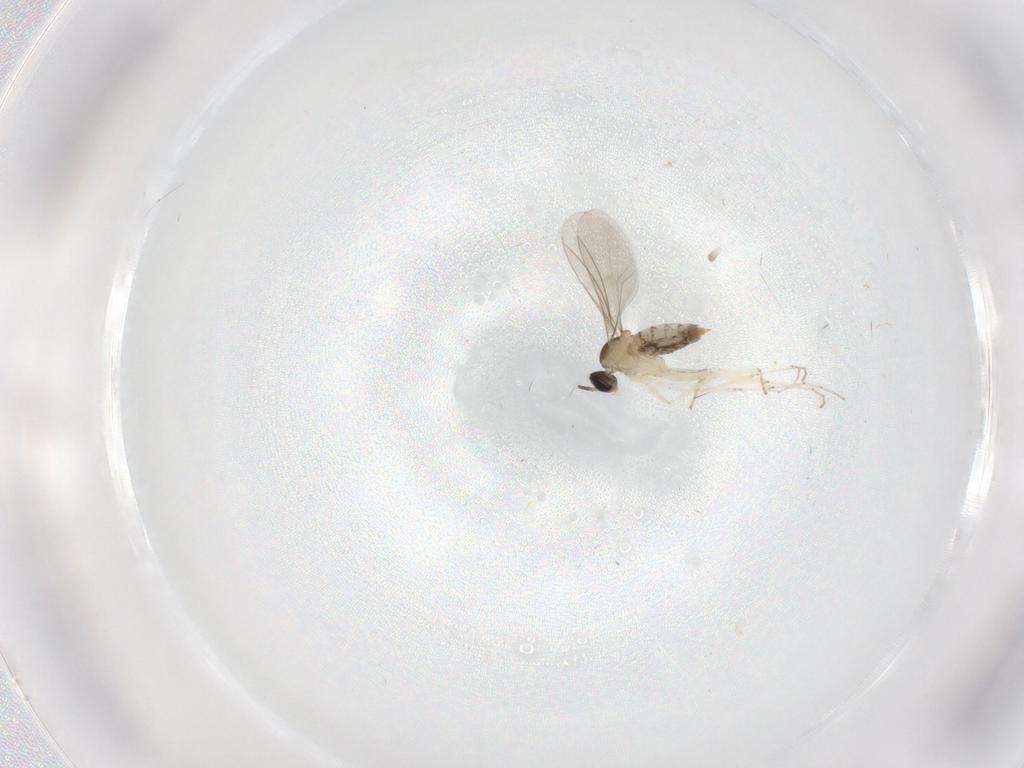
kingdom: Animalia
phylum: Arthropoda
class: Insecta
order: Diptera
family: Cecidomyiidae
